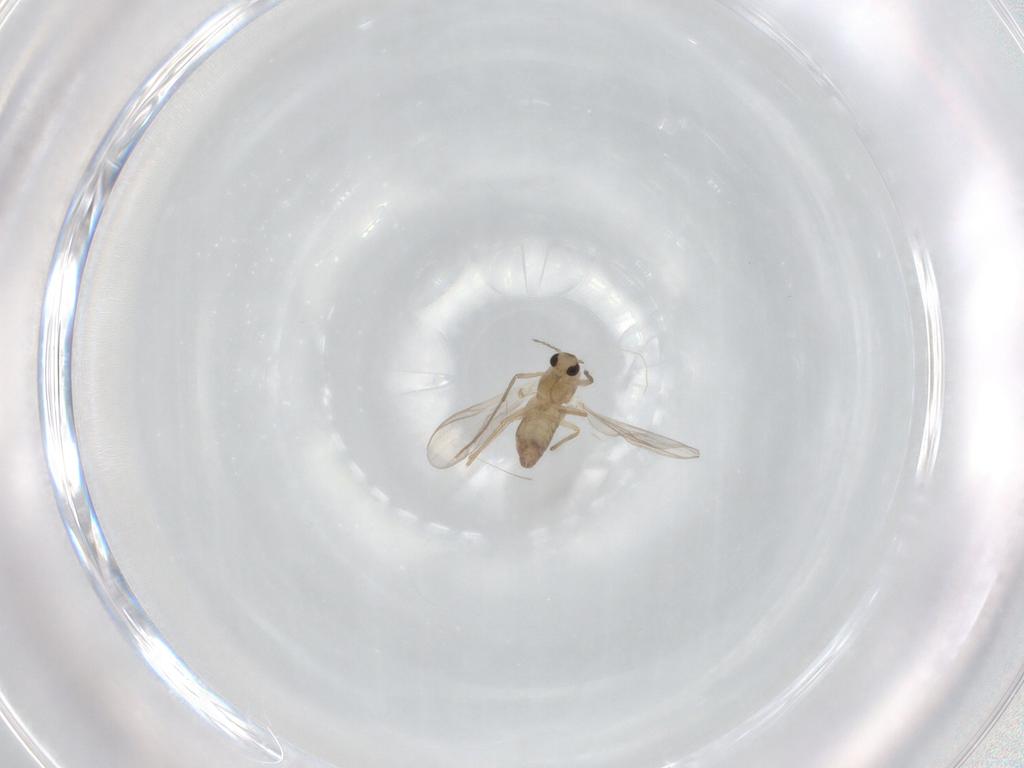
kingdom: Animalia
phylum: Arthropoda
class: Insecta
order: Diptera
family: Chironomidae
